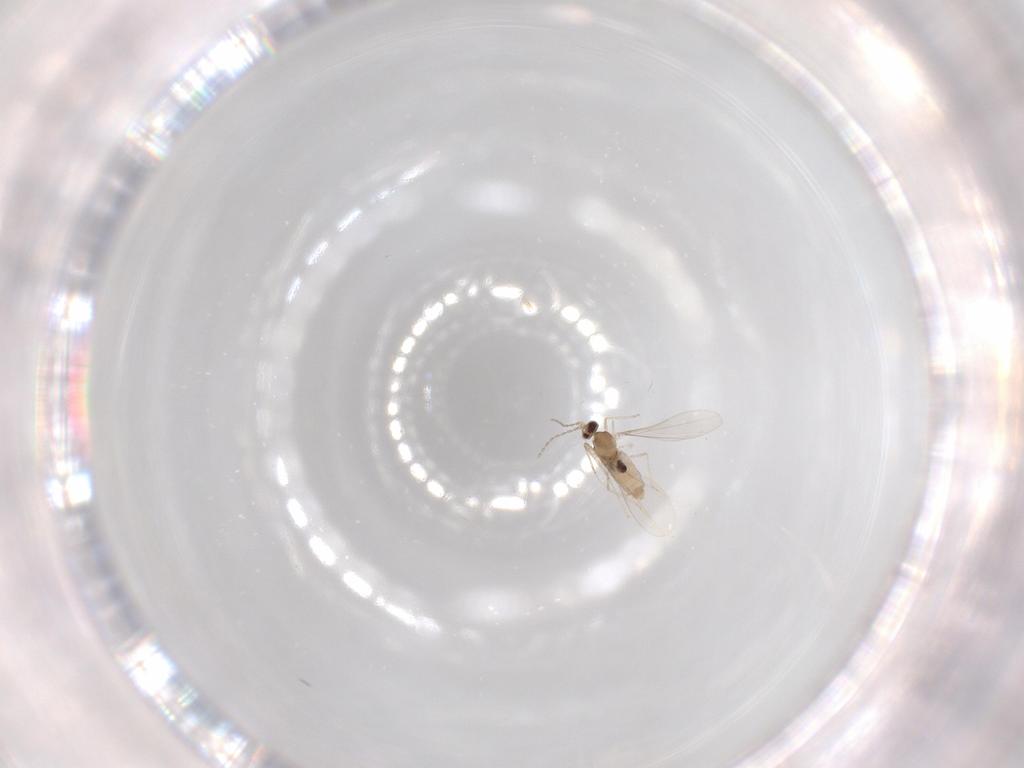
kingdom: Animalia
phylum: Arthropoda
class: Insecta
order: Diptera
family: Cecidomyiidae
